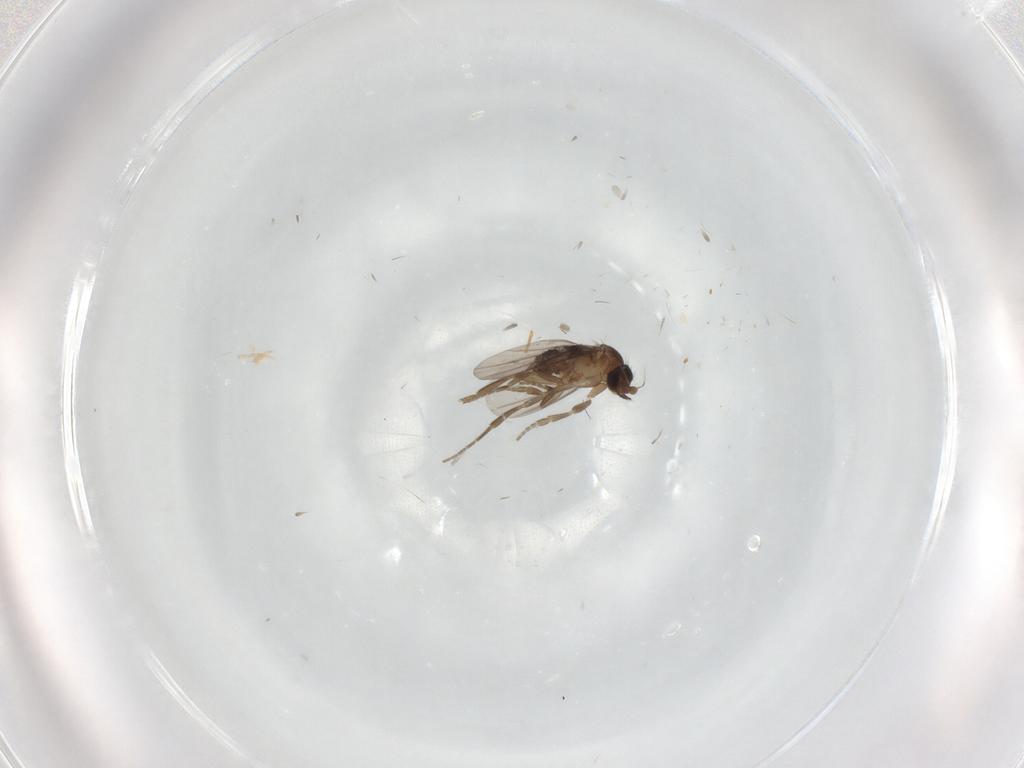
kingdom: Animalia
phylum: Arthropoda
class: Insecta
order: Diptera
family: Phoridae
